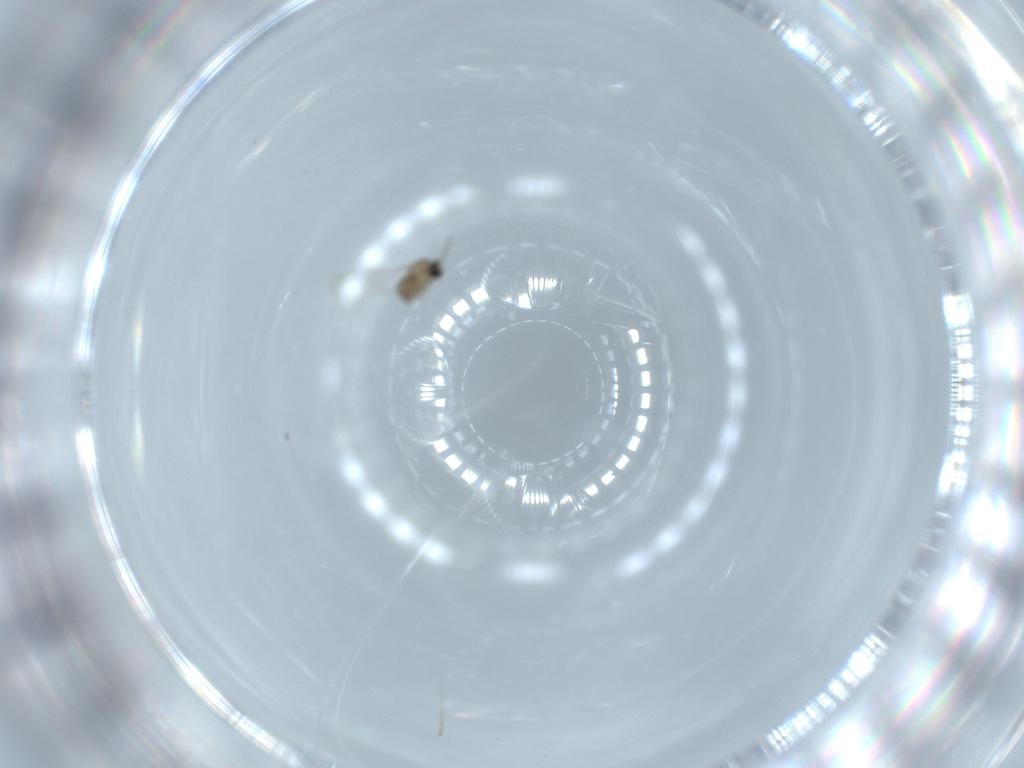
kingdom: Animalia
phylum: Arthropoda
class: Insecta
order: Diptera
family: Cecidomyiidae
